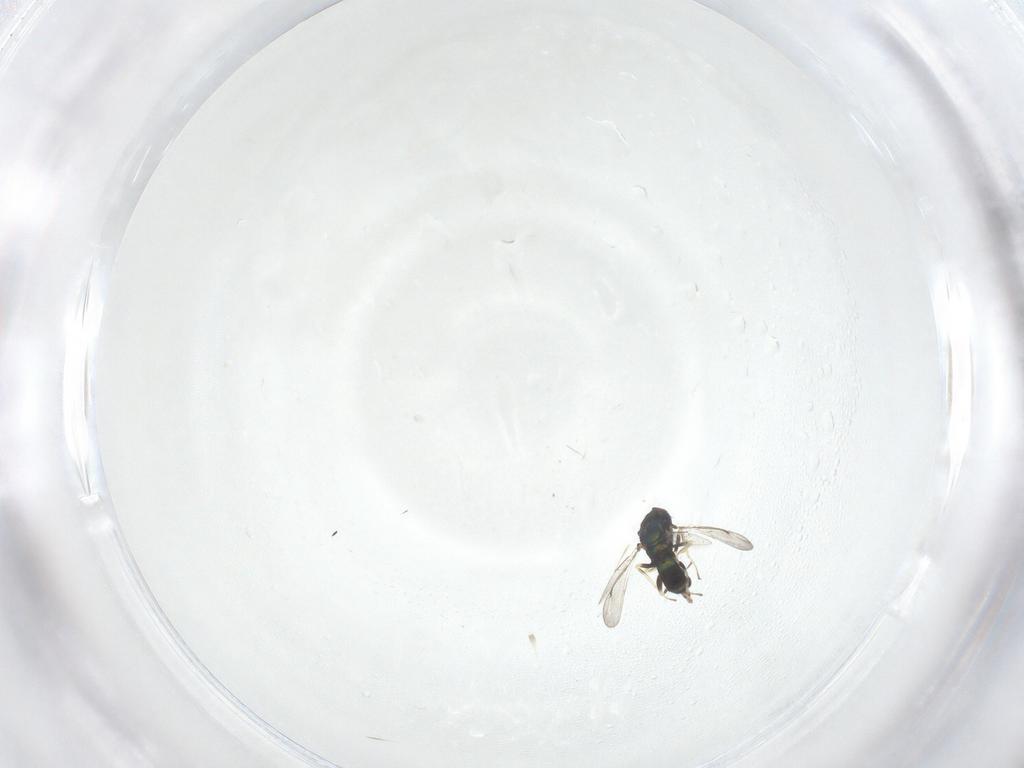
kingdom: Animalia
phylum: Arthropoda
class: Insecta
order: Hymenoptera
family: Eulophidae
